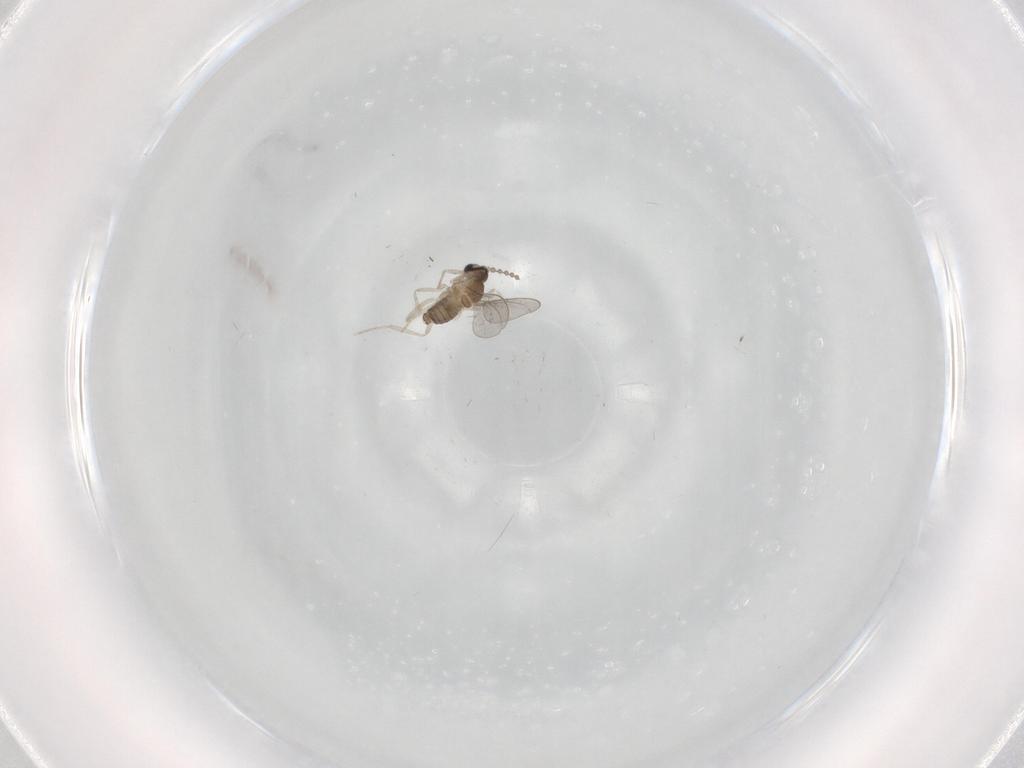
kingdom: Animalia
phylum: Arthropoda
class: Insecta
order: Diptera
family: Cecidomyiidae
